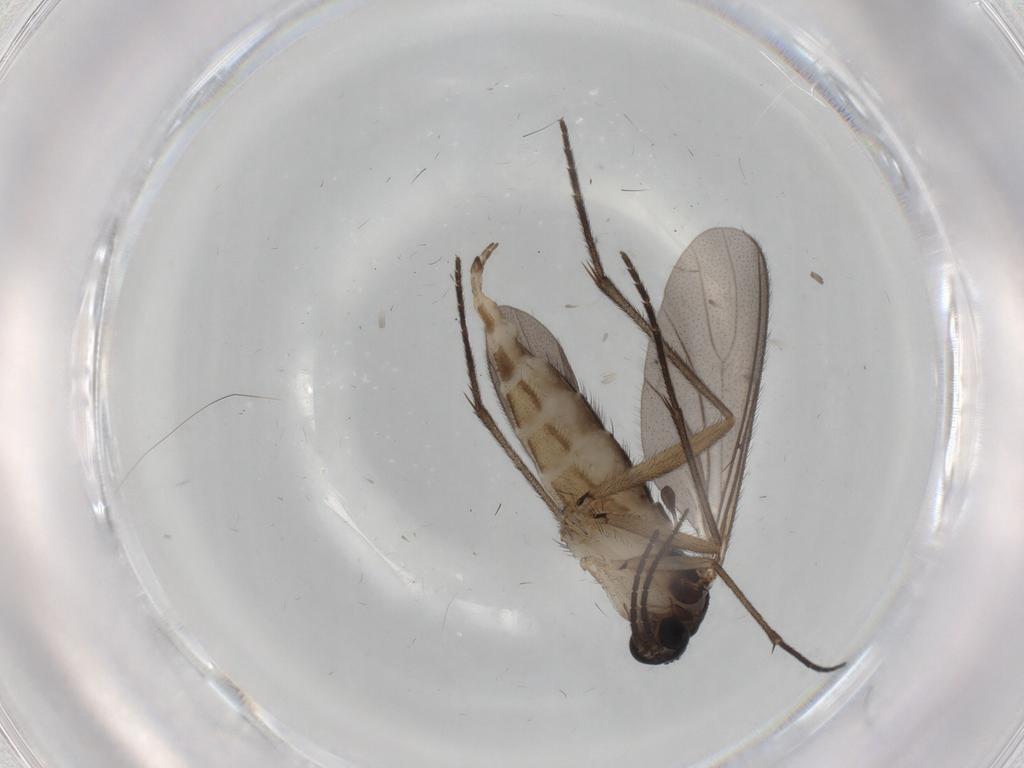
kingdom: Animalia
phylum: Arthropoda
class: Insecta
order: Diptera
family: Sciaridae
